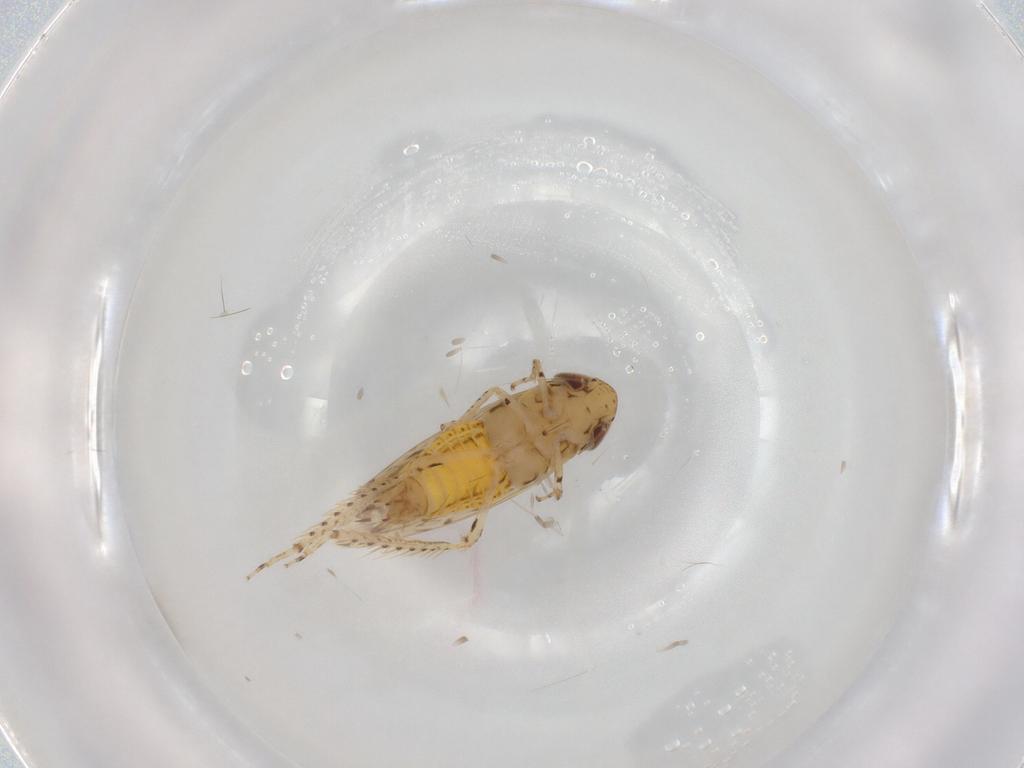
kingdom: Animalia
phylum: Arthropoda
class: Insecta
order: Hemiptera
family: Cicadellidae
